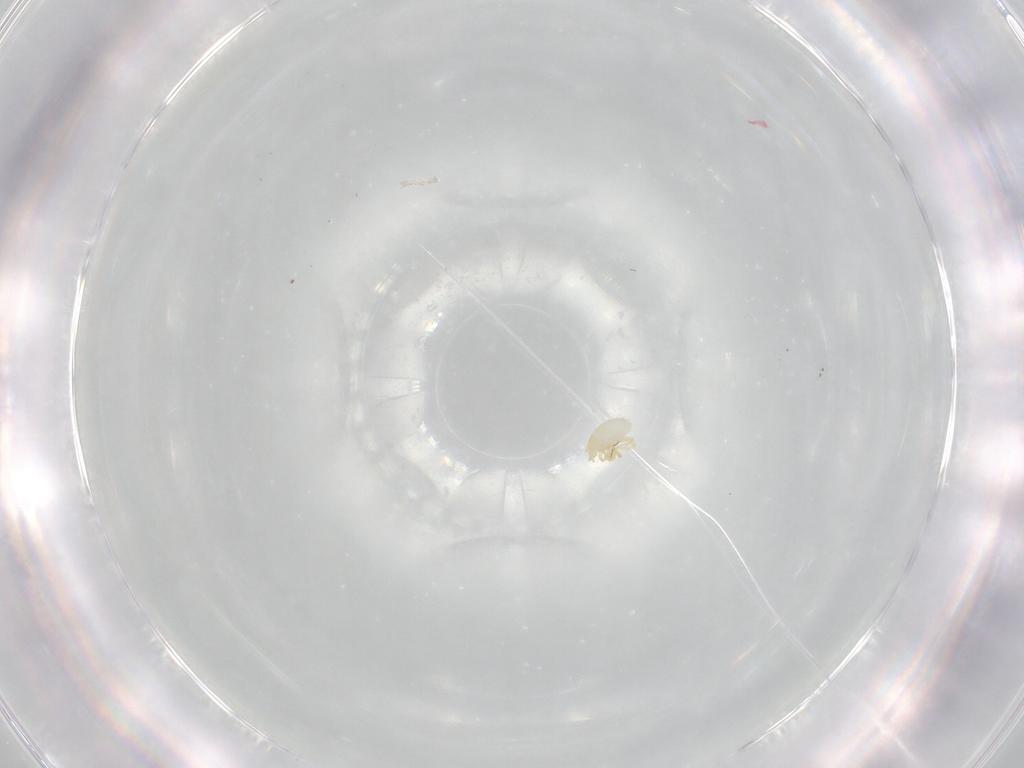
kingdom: Animalia
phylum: Arthropoda
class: Arachnida
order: Trombidiformes
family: Trombidiidae
